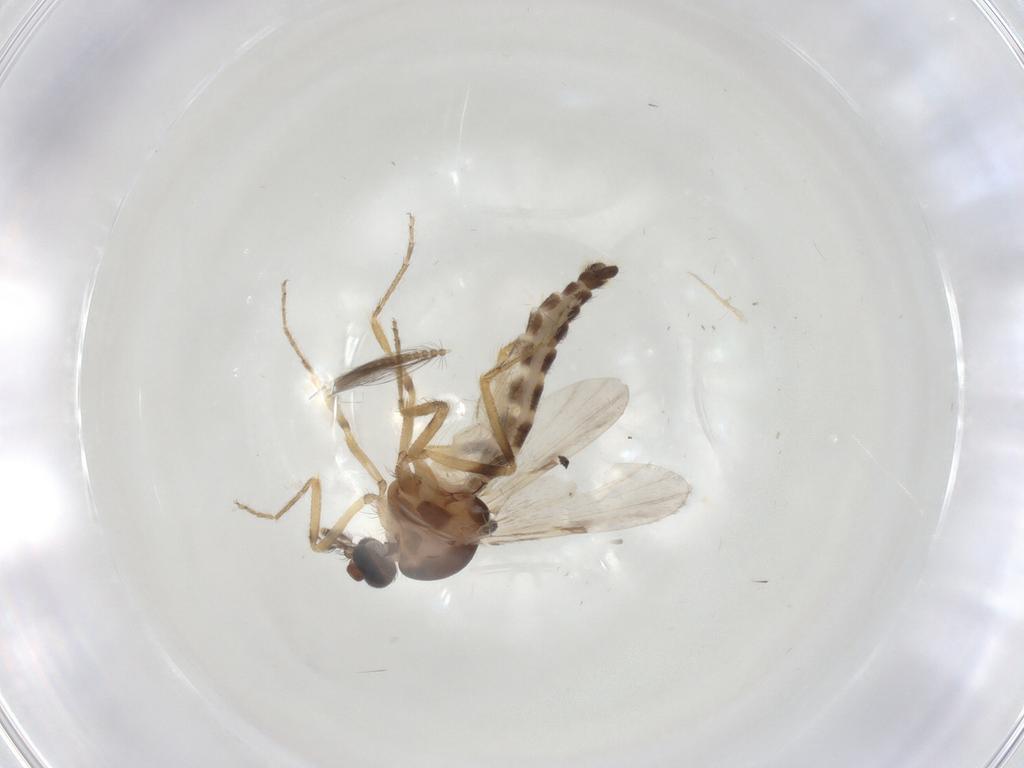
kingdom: Animalia
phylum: Arthropoda
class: Insecta
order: Diptera
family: Ceratopogonidae
